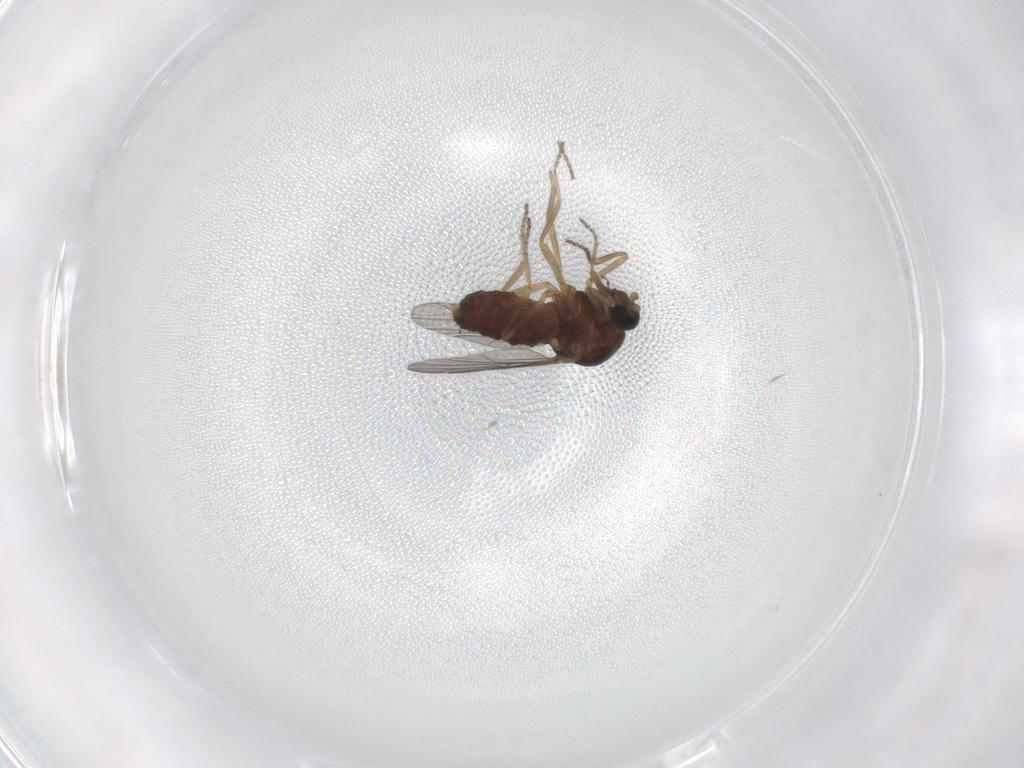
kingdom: Animalia
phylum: Arthropoda
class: Insecta
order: Diptera
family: Ceratopogonidae
